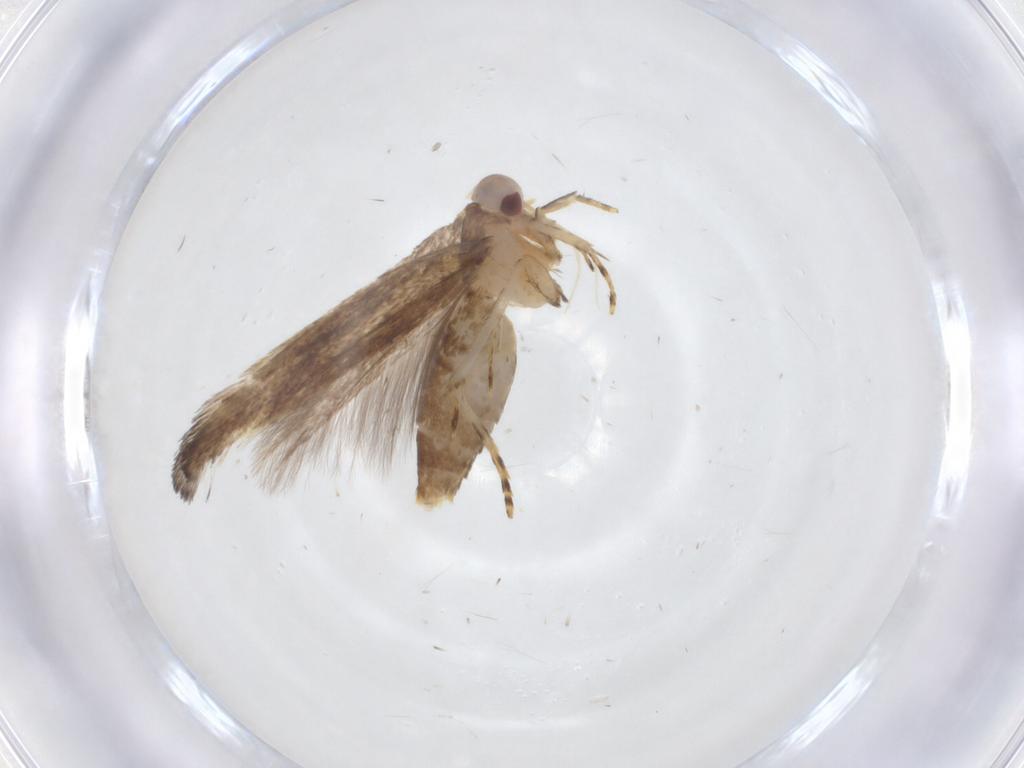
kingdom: Animalia
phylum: Arthropoda
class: Insecta
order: Lepidoptera
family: Cosmopterigidae
